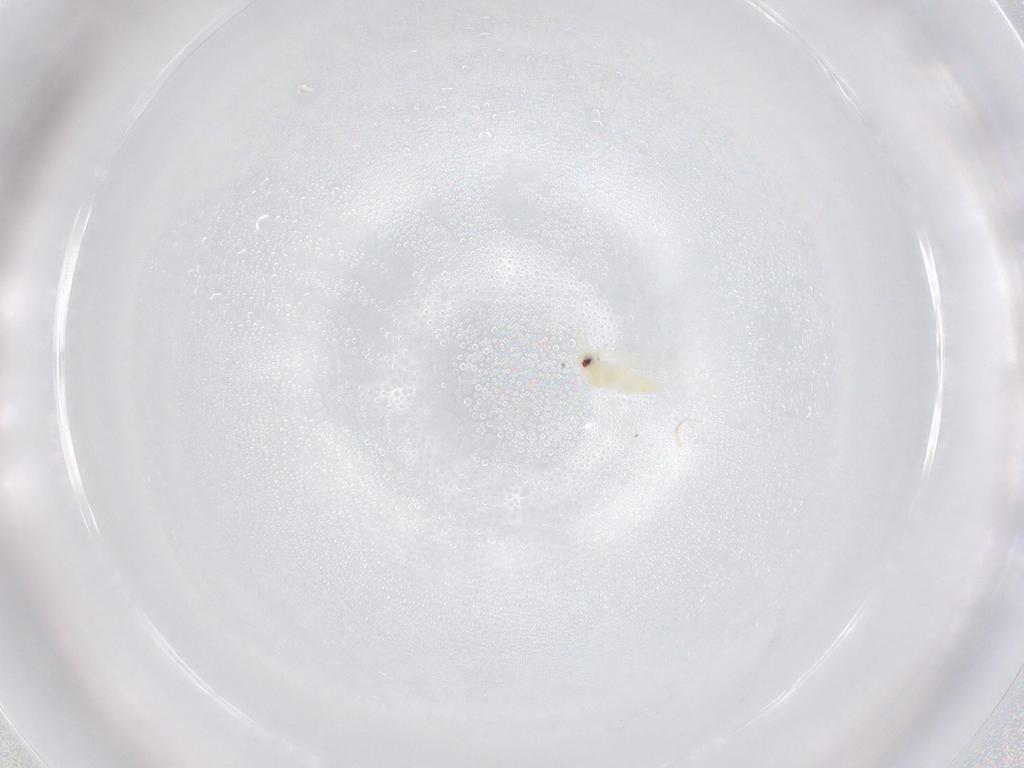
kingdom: Animalia
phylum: Arthropoda
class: Insecta
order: Hemiptera
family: Aleyrodidae
